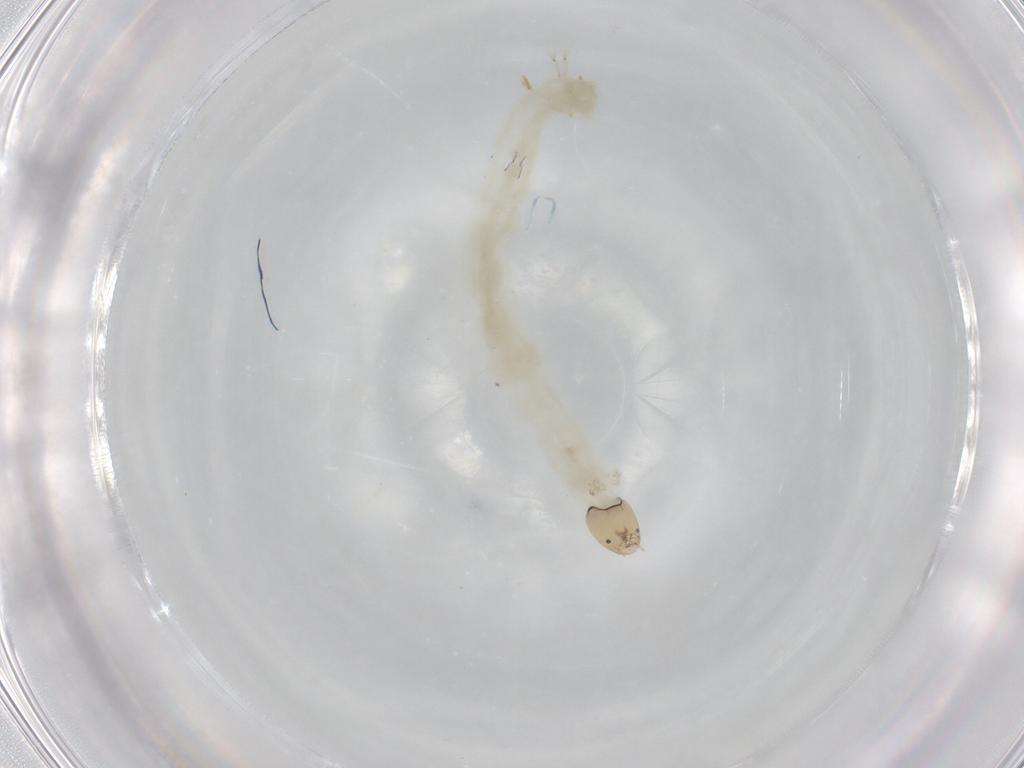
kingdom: Animalia
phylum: Arthropoda
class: Insecta
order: Diptera
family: Chironomidae
